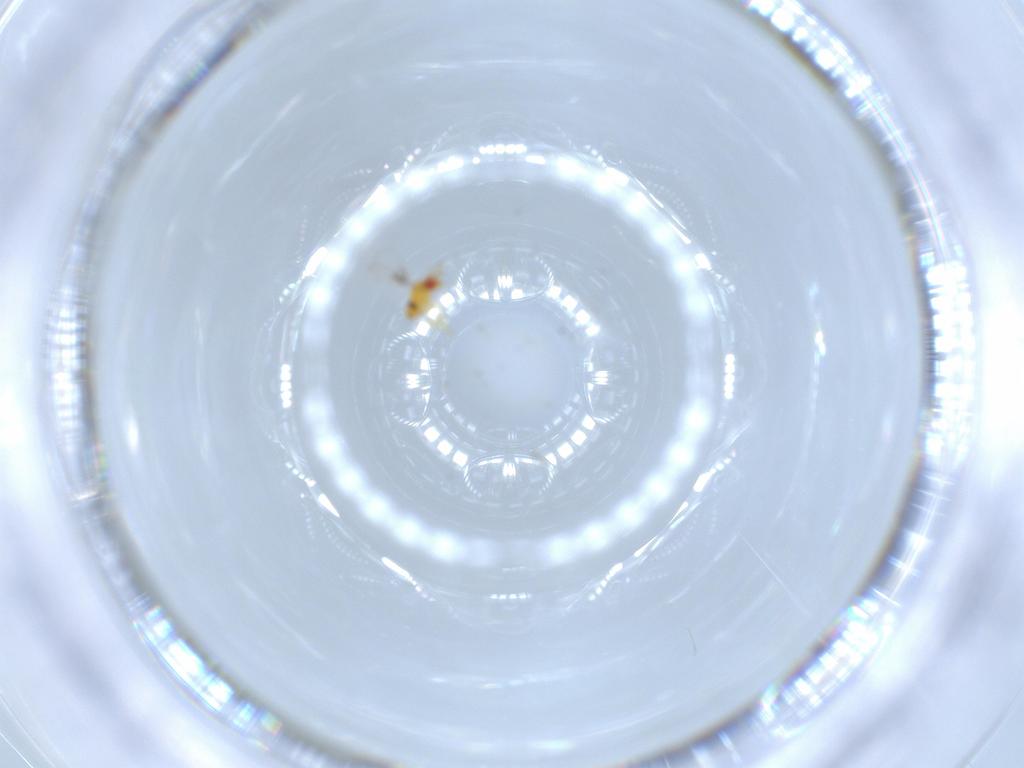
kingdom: Animalia
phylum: Arthropoda
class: Insecta
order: Hymenoptera
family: Trichogrammatidae
